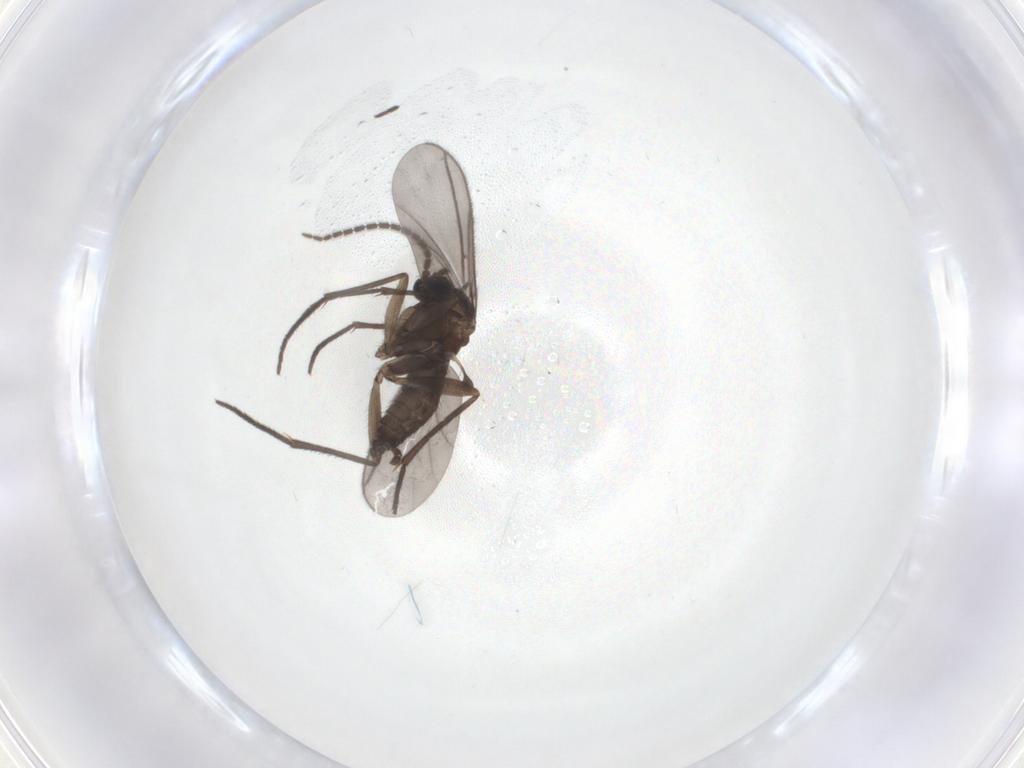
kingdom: Animalia
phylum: Arthropoda
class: Insecta
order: Diptera
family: Sciaridae
